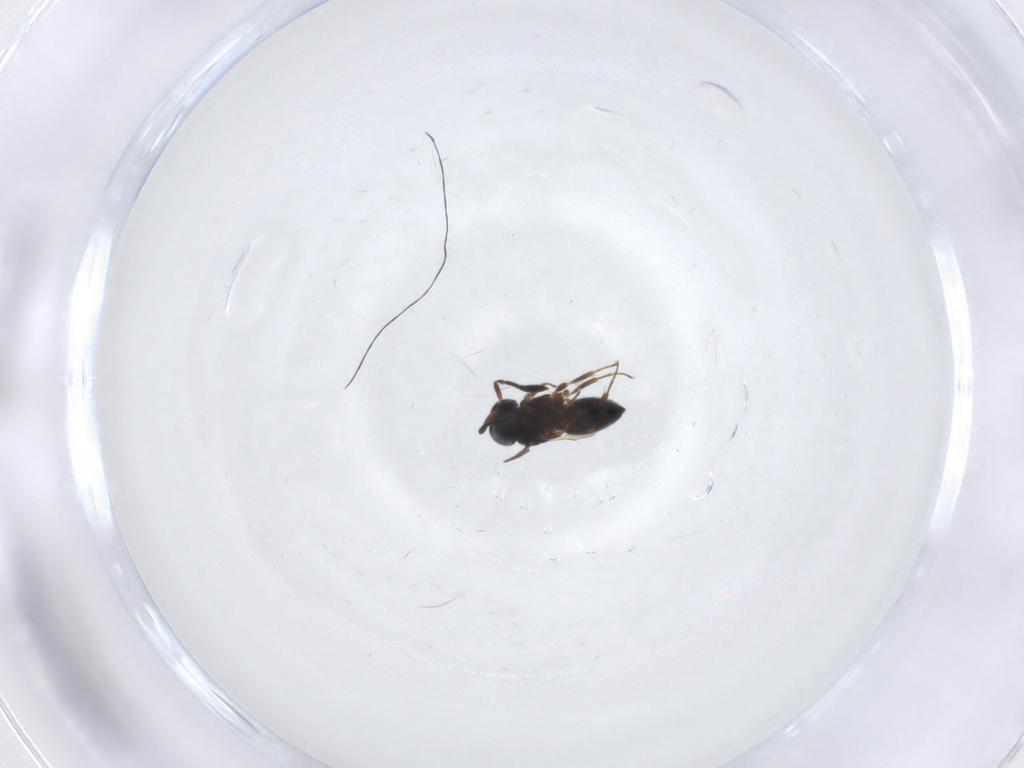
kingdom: Animalia
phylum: Arthropoda
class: Insecta
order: Hymenoptera
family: Scelionidae
